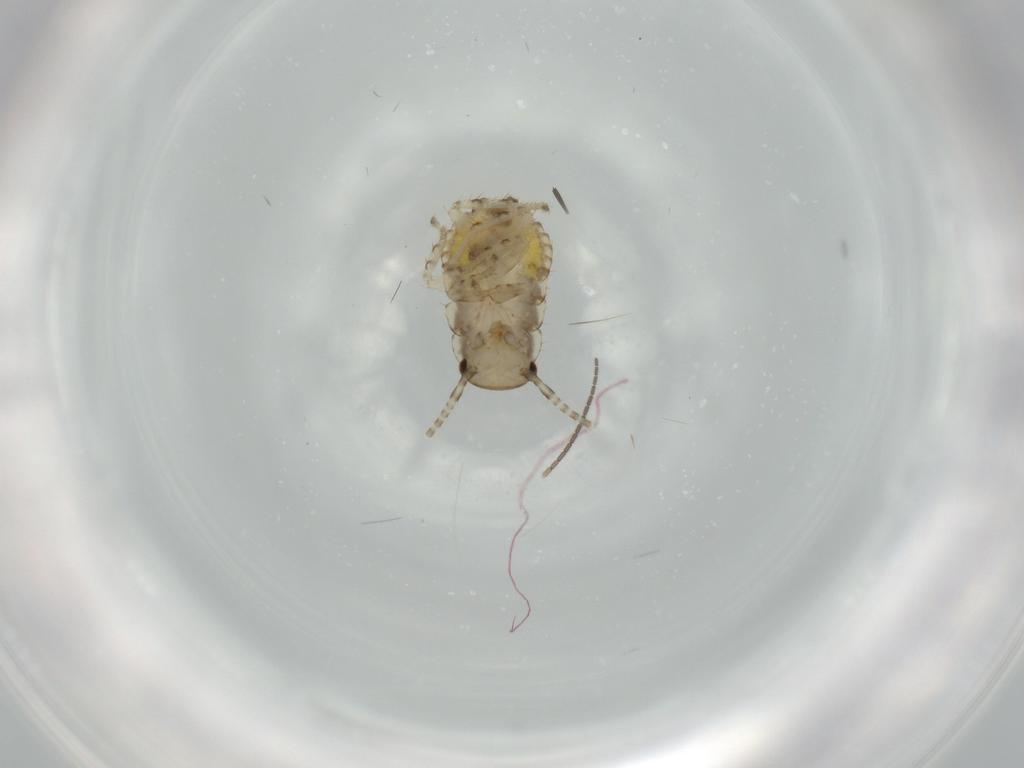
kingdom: Animalia
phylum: Arthropoda
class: Insecta
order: Blattodea
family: Ectobiidae
